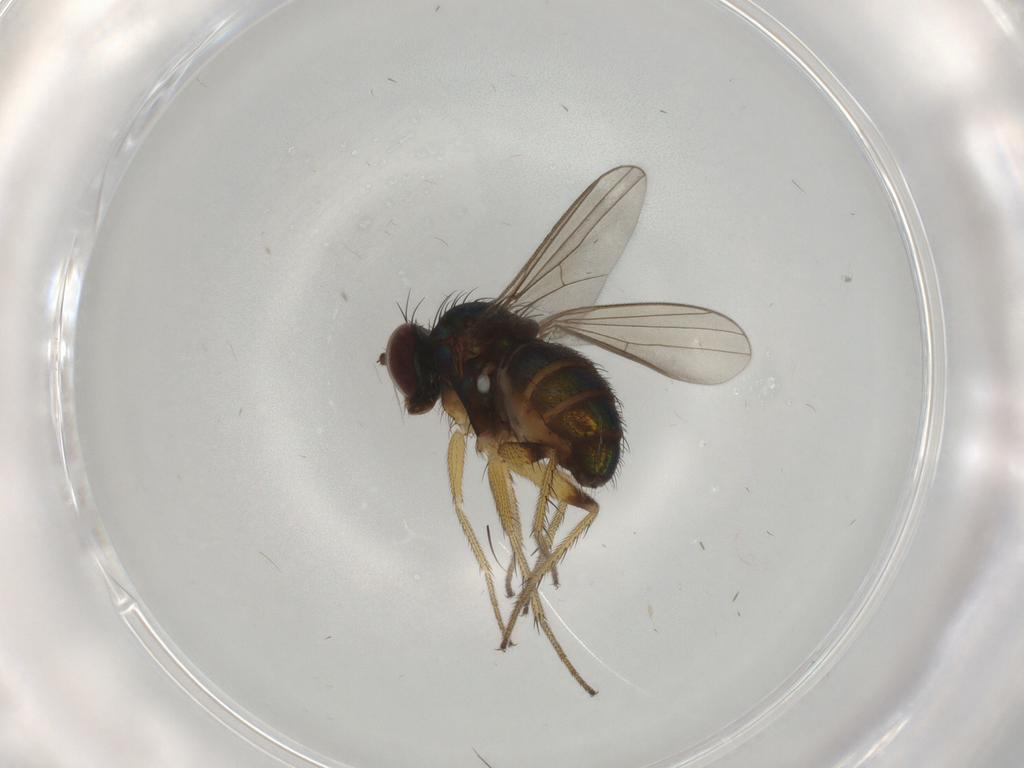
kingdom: Animalia
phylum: Arthropoda
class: Insecta
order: Diptera
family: Dolichopodidae
